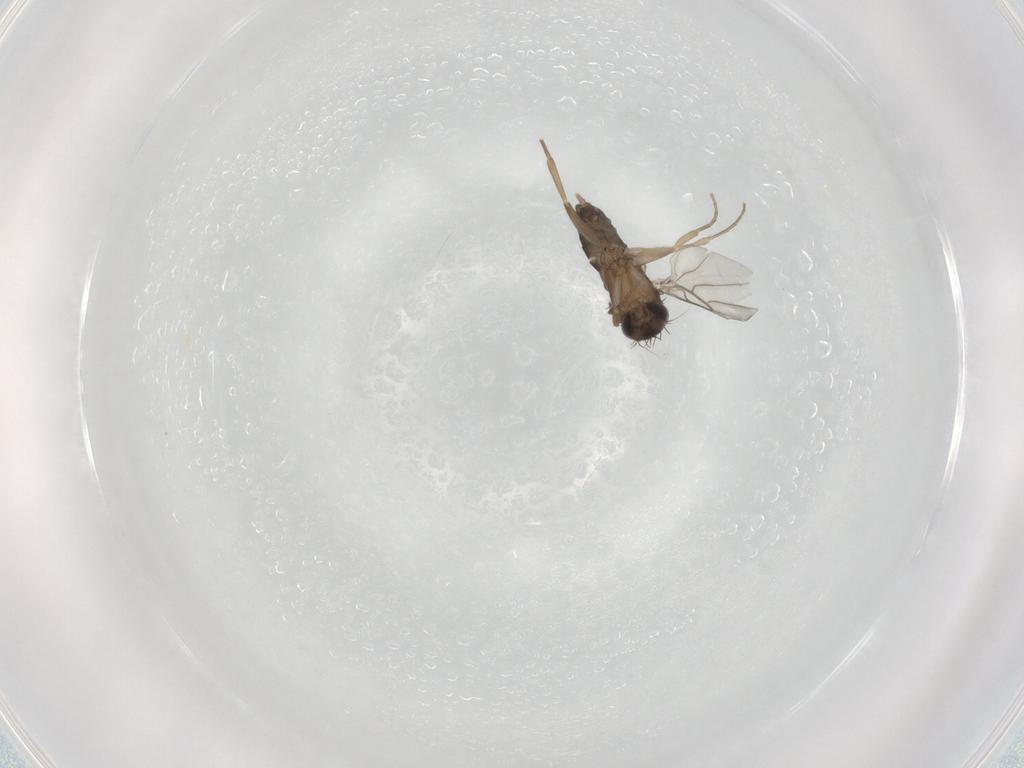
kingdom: Animalia
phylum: Arthropoda
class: Insecta
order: Diptera
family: Phoridae
